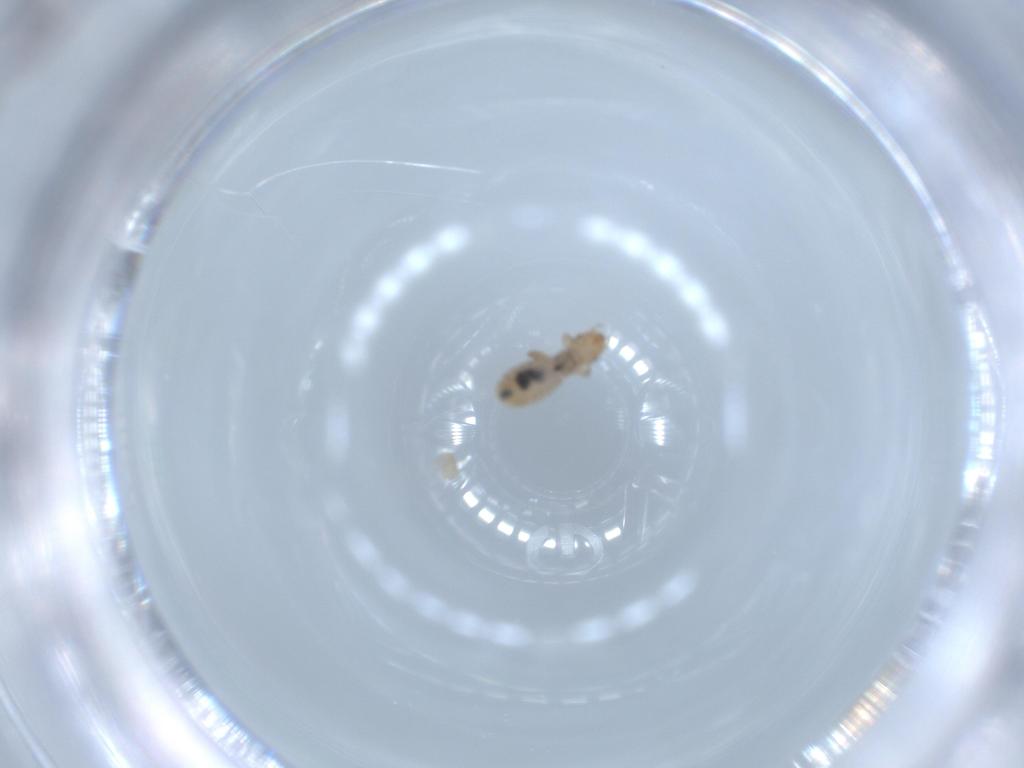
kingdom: Animalia
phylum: Arthropoda
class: Insecta
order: Psocodea
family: Liposcelididae
